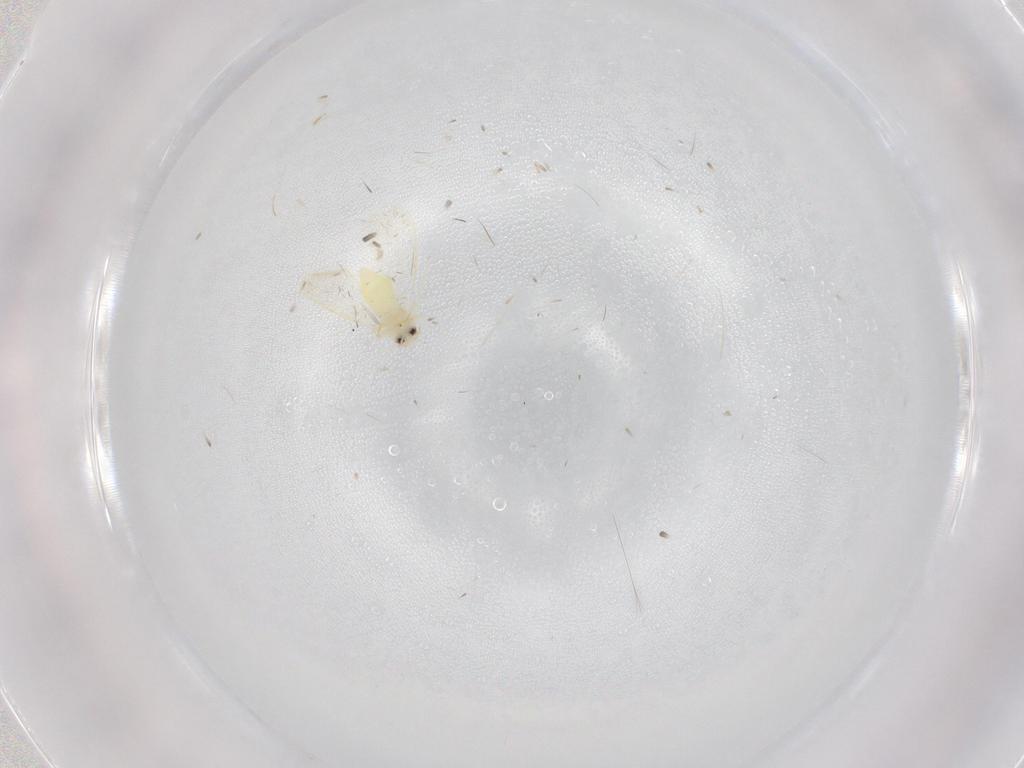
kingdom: Animalia
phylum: Arthropoda
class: Insecta
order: Hemiptera
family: Aleyrodidae
